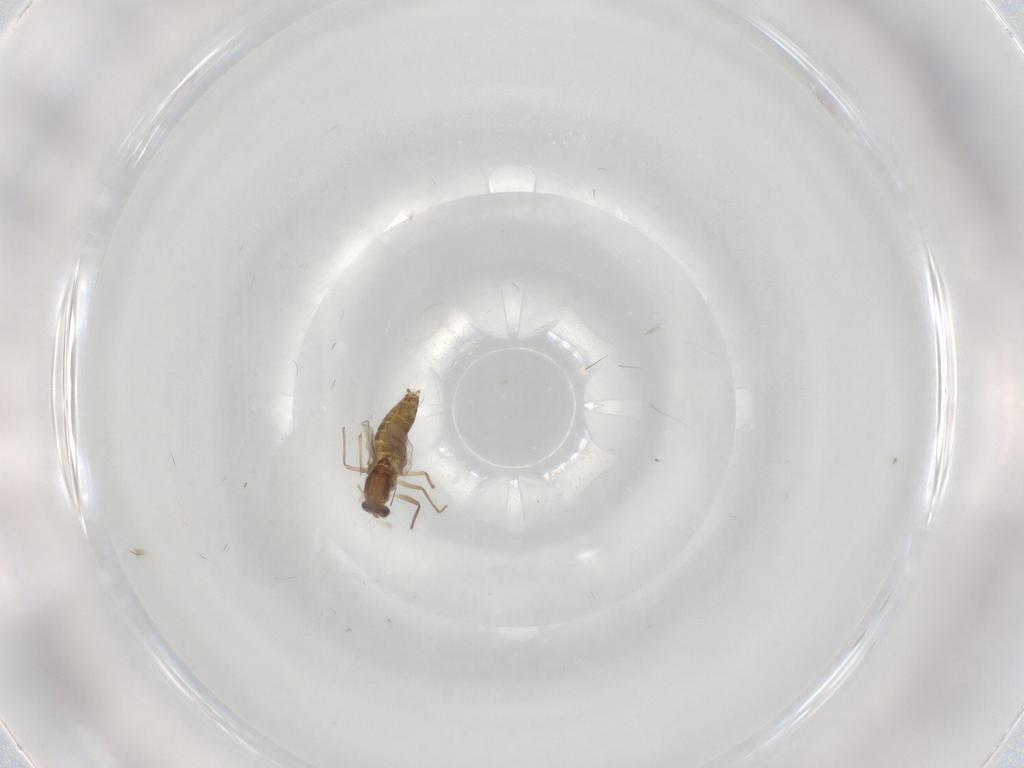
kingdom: Animalia
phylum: Arthropoda
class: Insecta
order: Diptera
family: Chironomidae
